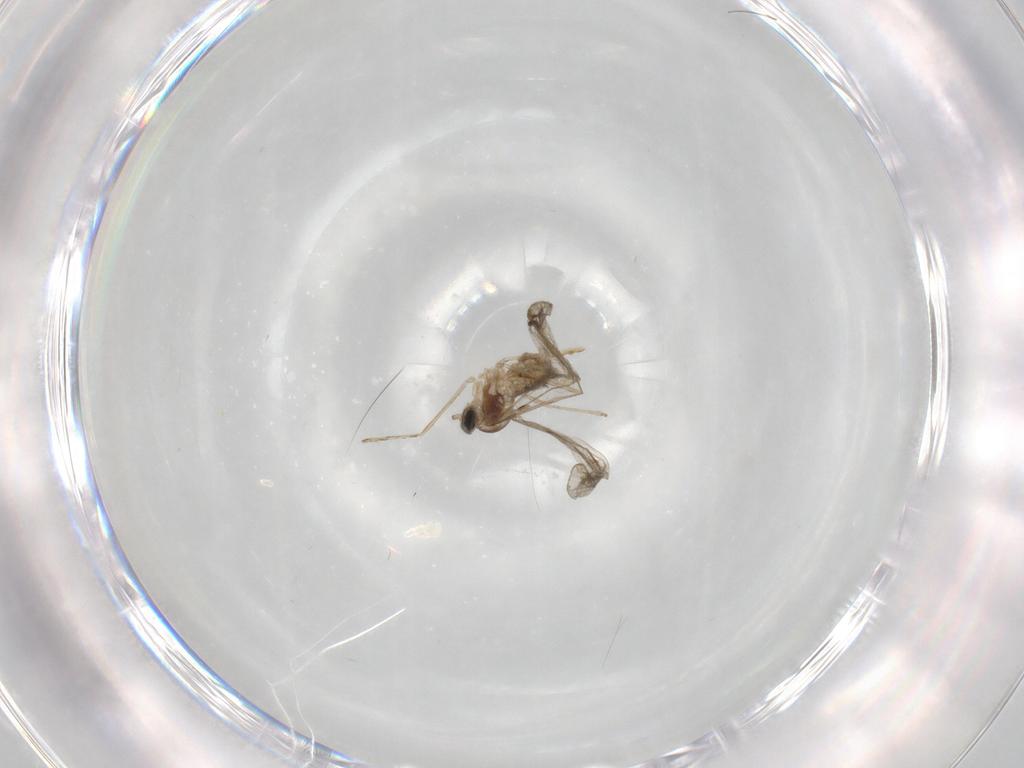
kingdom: Animalia
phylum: Arthropoda
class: Insecta
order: Diptera
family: Cecidomyiidae
